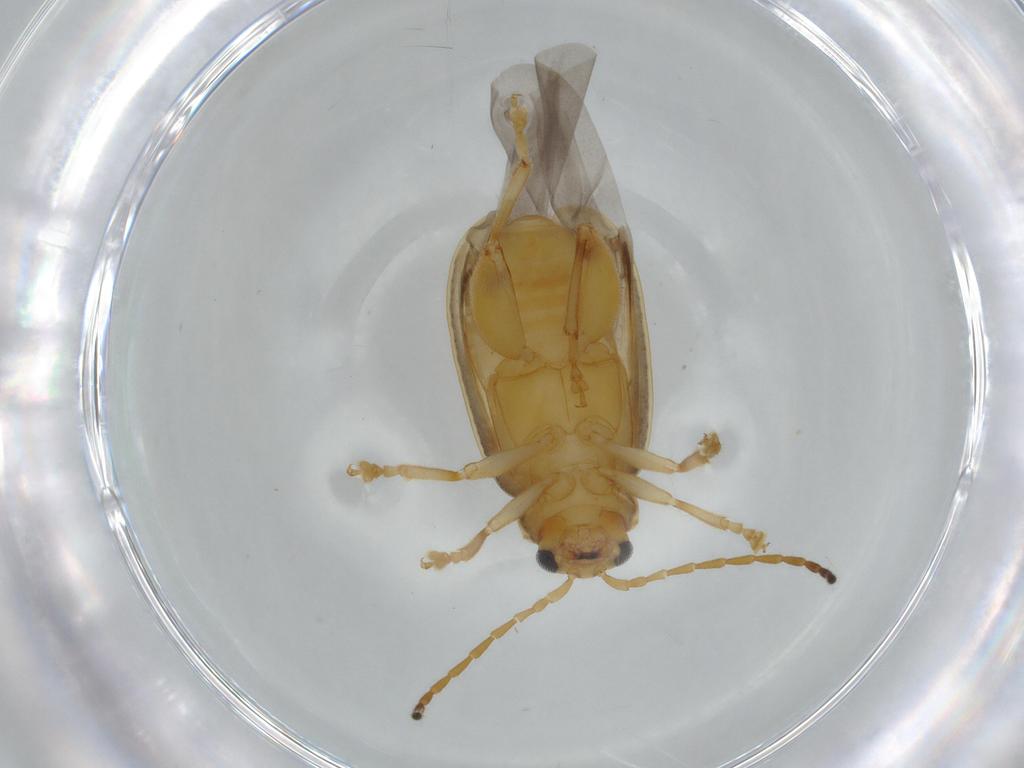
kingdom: Animalia
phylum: Arthropoda
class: Insecta
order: Coleoptera
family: Chrysomelidae
